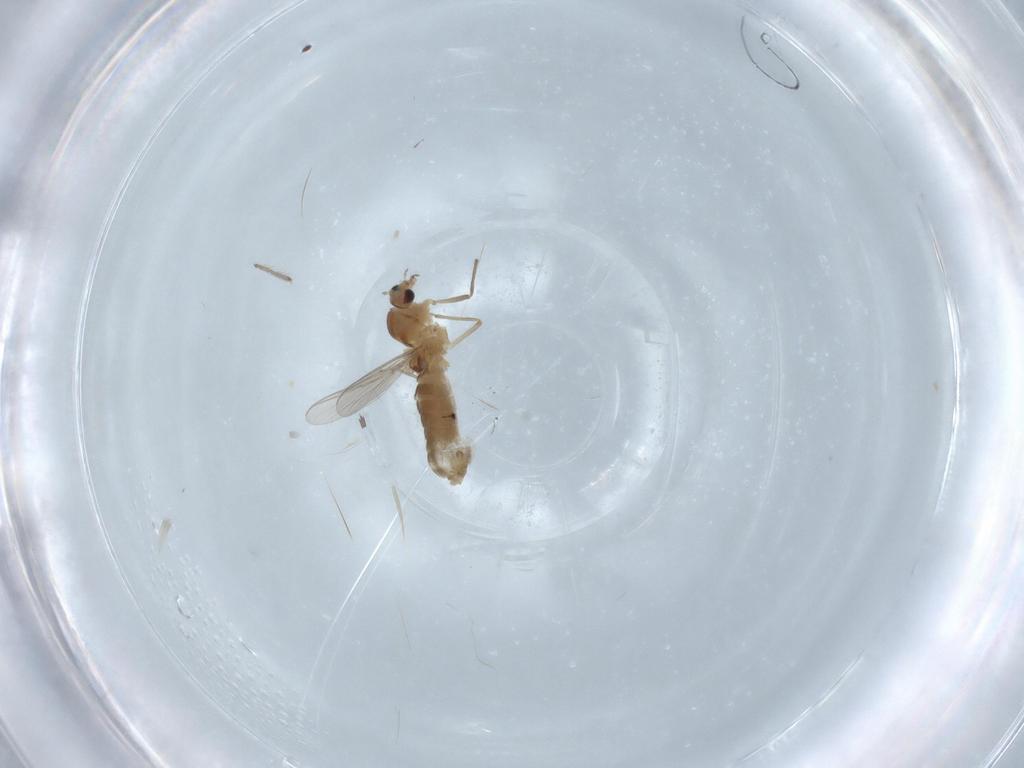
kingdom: Animalia
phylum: Arthropoda
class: Insecta
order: Diptera
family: Chironomidae
